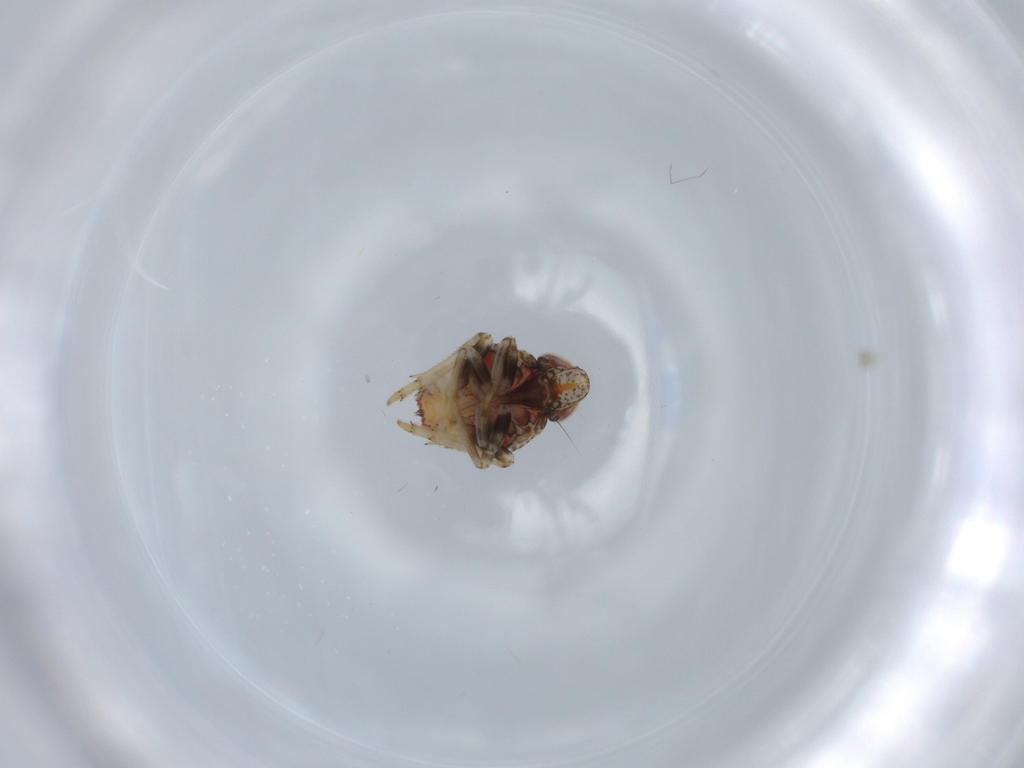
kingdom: Animalia
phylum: Arthropoda
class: Insecta
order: Hemiptera
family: Issidae
